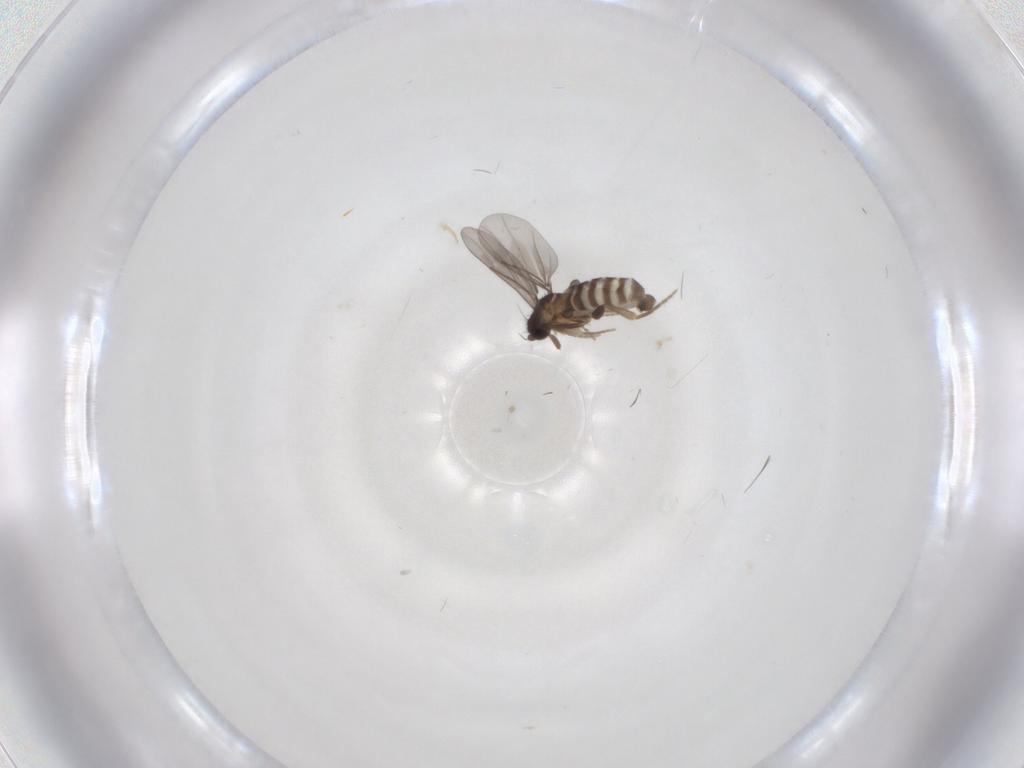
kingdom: Animalia
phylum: Arthropoda
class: Insecta
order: Diptera
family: Phoridae
